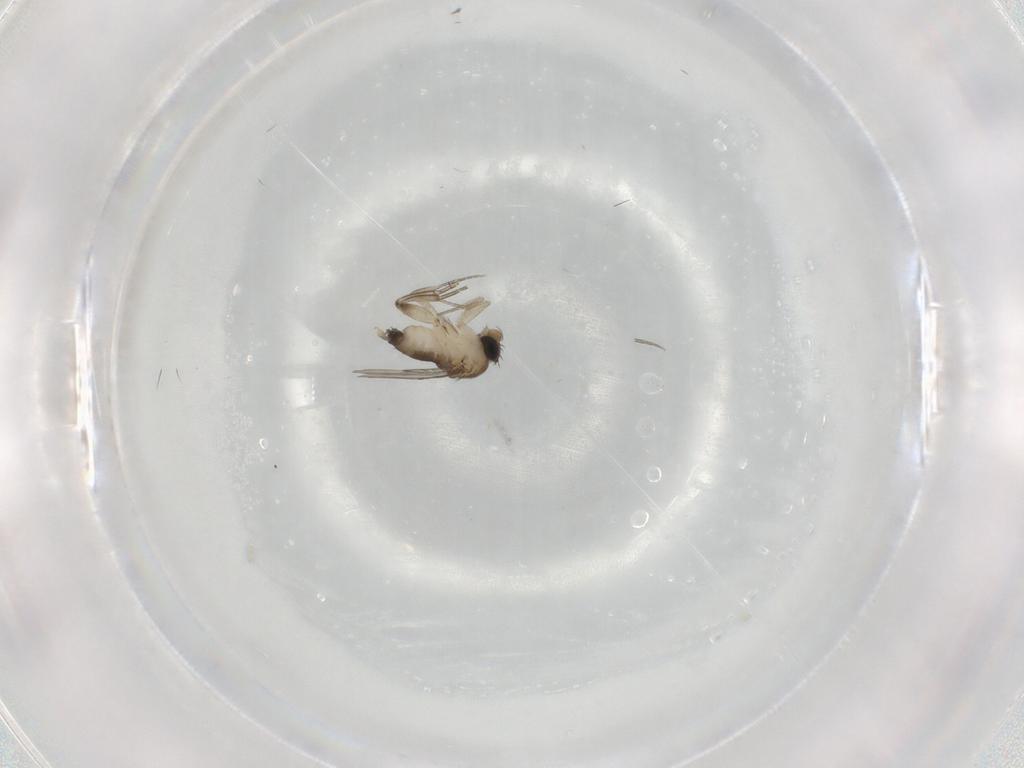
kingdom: Animalia
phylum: Arthropoda
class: Insecta
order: Diptera
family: Phoridae
